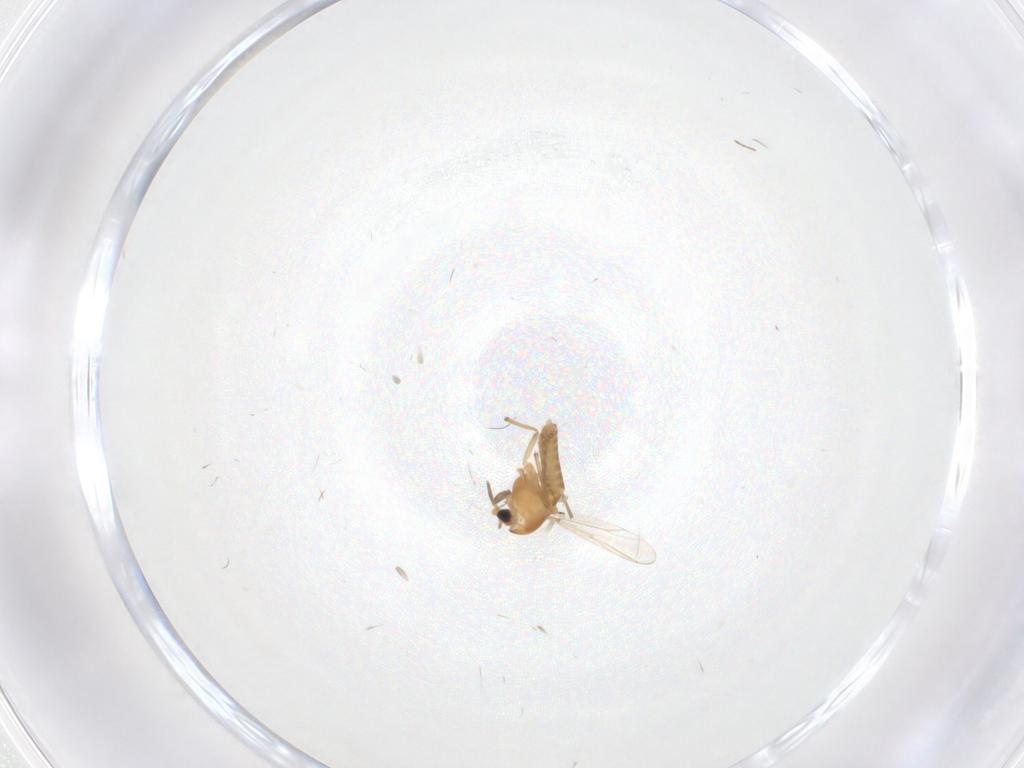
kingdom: Animalia
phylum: Arthropoda
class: Insecta
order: Diptera
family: Chironomidae
